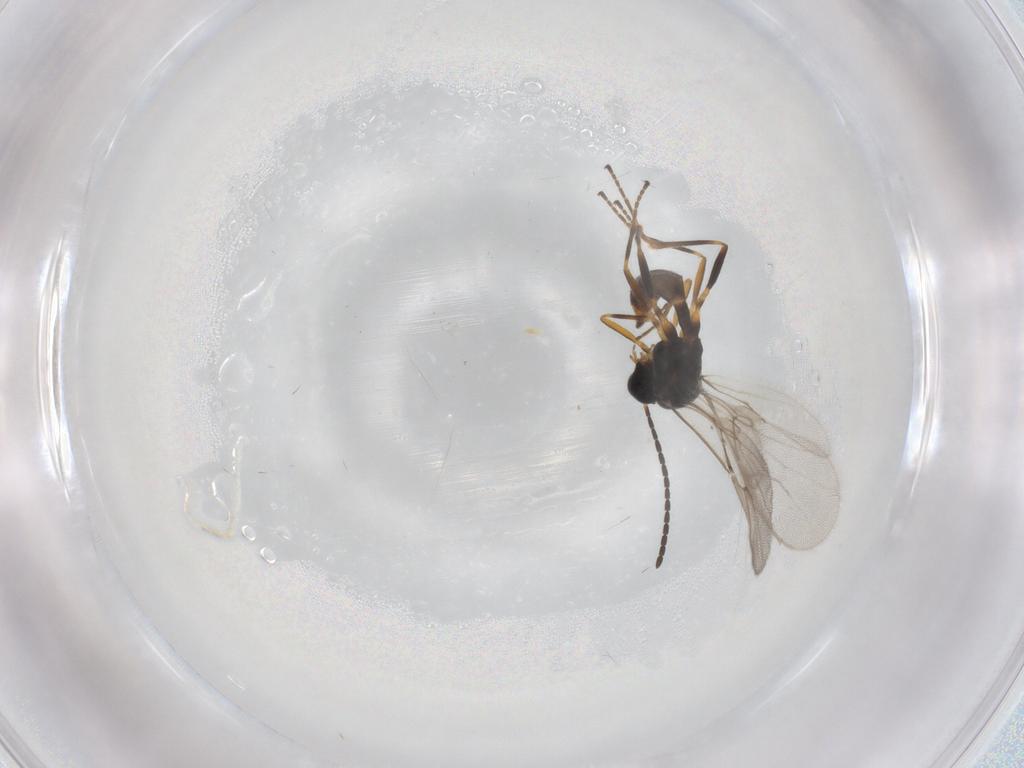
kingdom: Animalia
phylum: Arthropoda
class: Insecta
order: Hymenoptera
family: Braconidae
